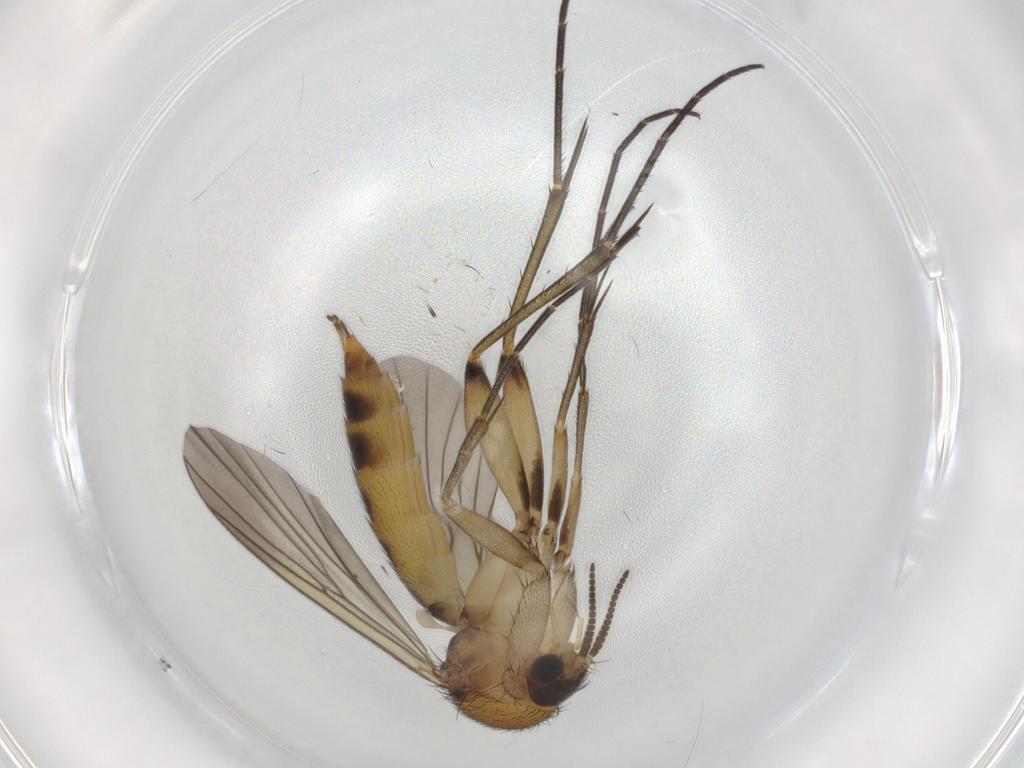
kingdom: Animalia
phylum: Arthropoda
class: Insecta
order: Diptera
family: Mycetophilidae
